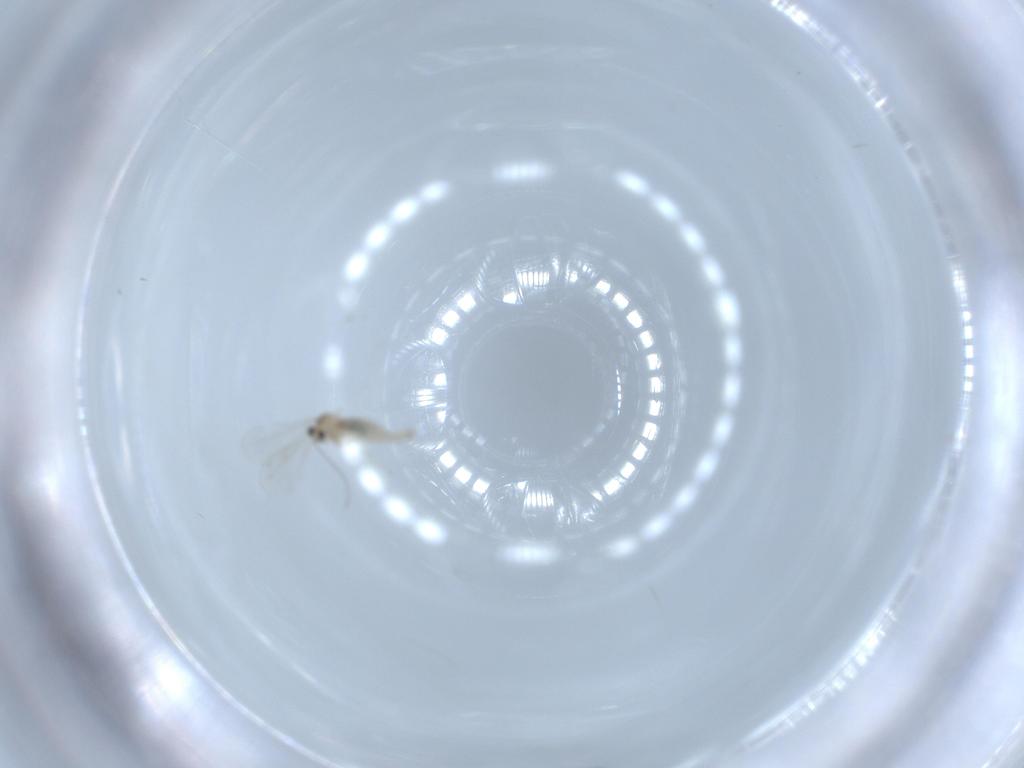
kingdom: Animalia
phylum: Arthropoda
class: Insecta
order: Diptera
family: Cecidomyiidae
